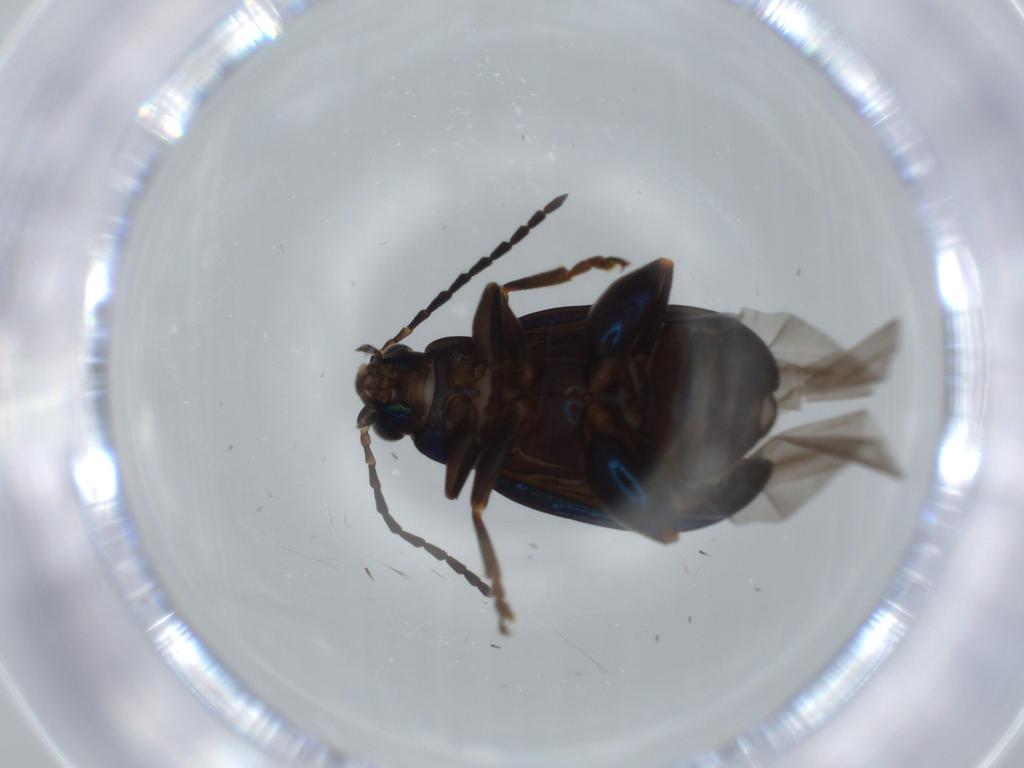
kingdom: Animalia
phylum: Arthropoda
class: Insecta
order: Coleoptera
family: Chrysomelidae
